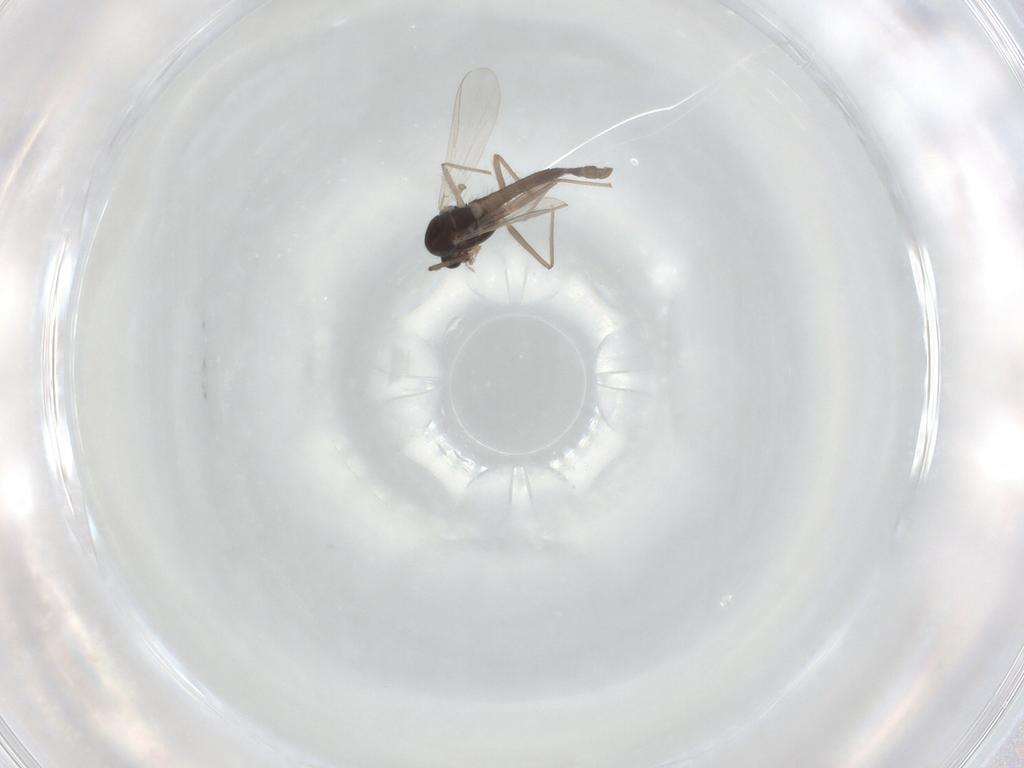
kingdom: Animalia
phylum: Arthropoda
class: Insecta
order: Diptera
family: Chironomidae
